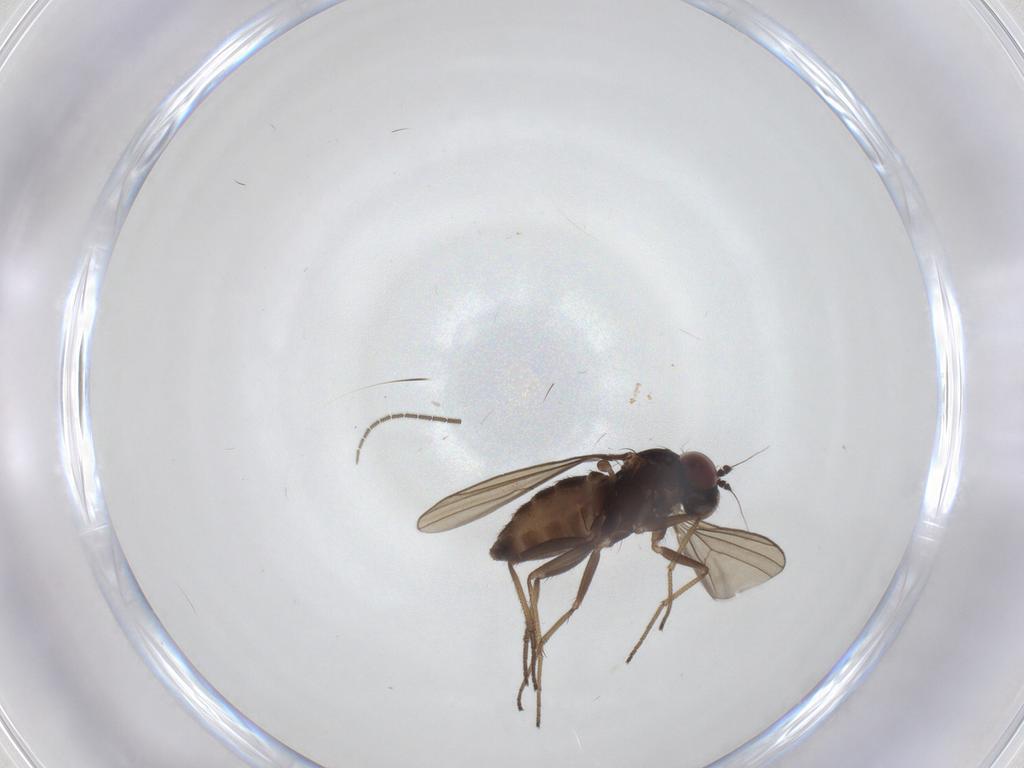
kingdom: Animalia
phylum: Arthropoda
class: Insecta
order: Diptera
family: Dolichopodidae
